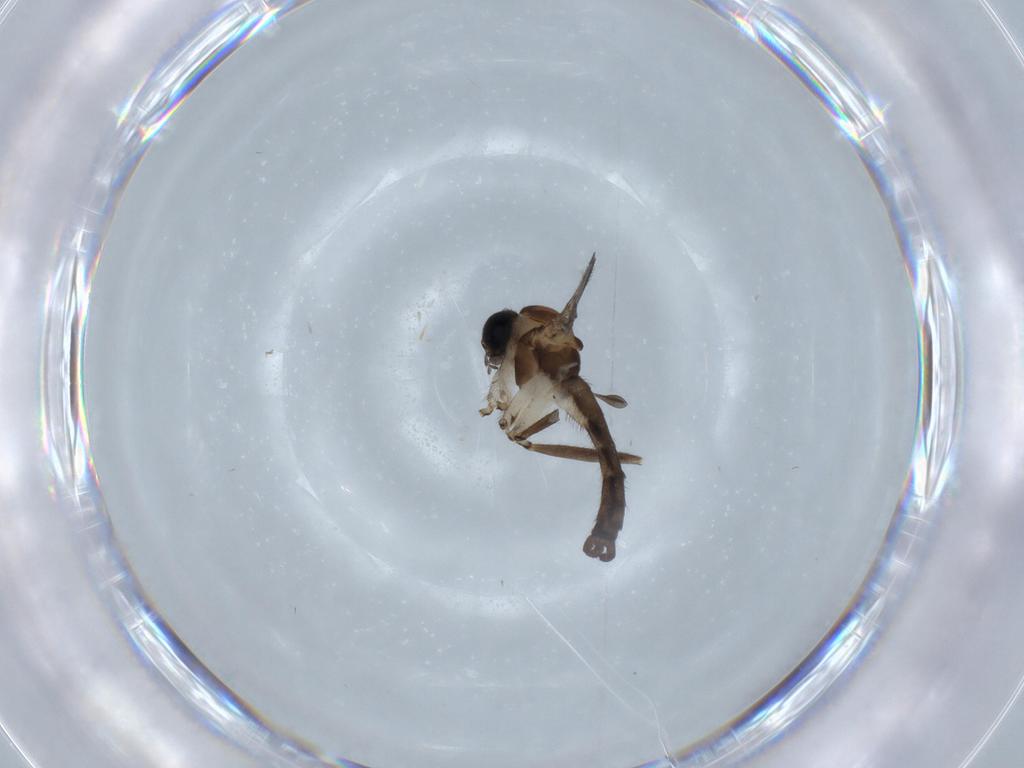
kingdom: Animalia
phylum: Arthropoda
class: Insecta
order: Diptera
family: Sciaridae
